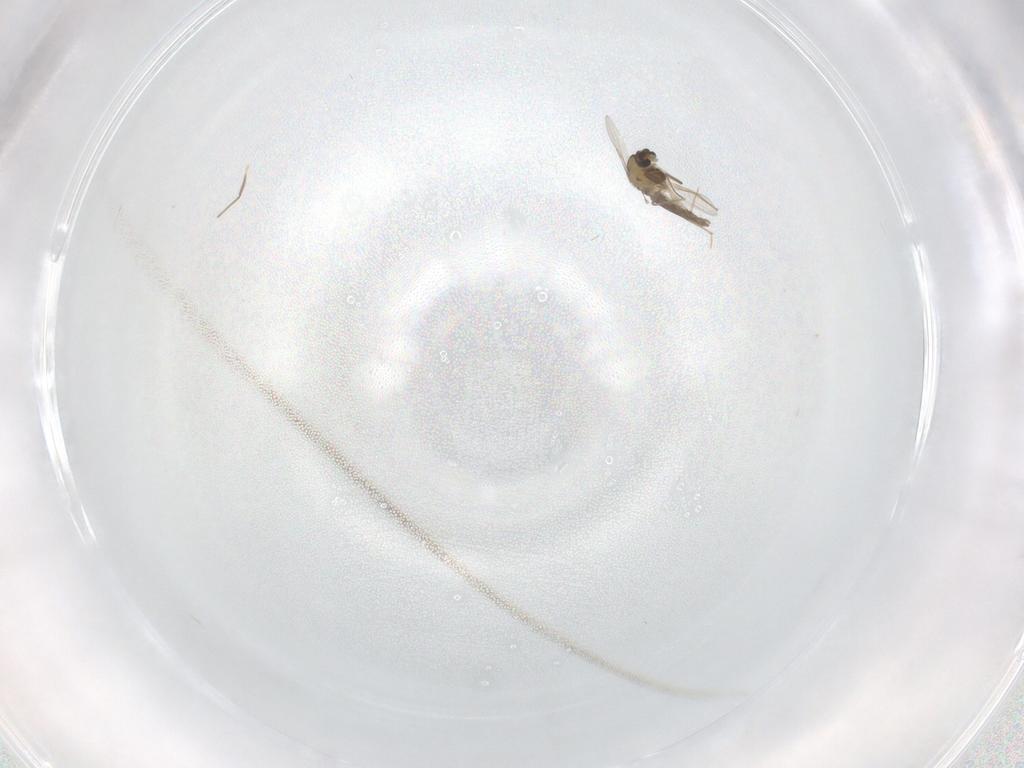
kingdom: Animalia
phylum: Arthropoda
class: Insecta
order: Diptera
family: Chironomidae
